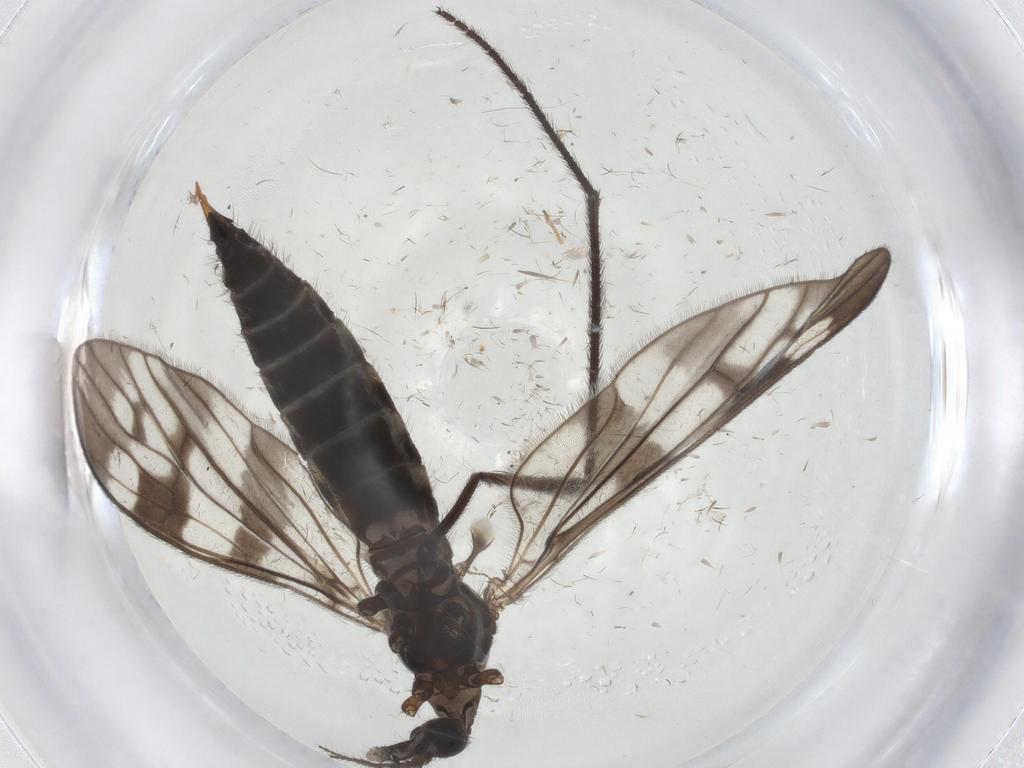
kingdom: Animalia
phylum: Arthropoda
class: Insecta
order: Diptera
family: Limoniidae
